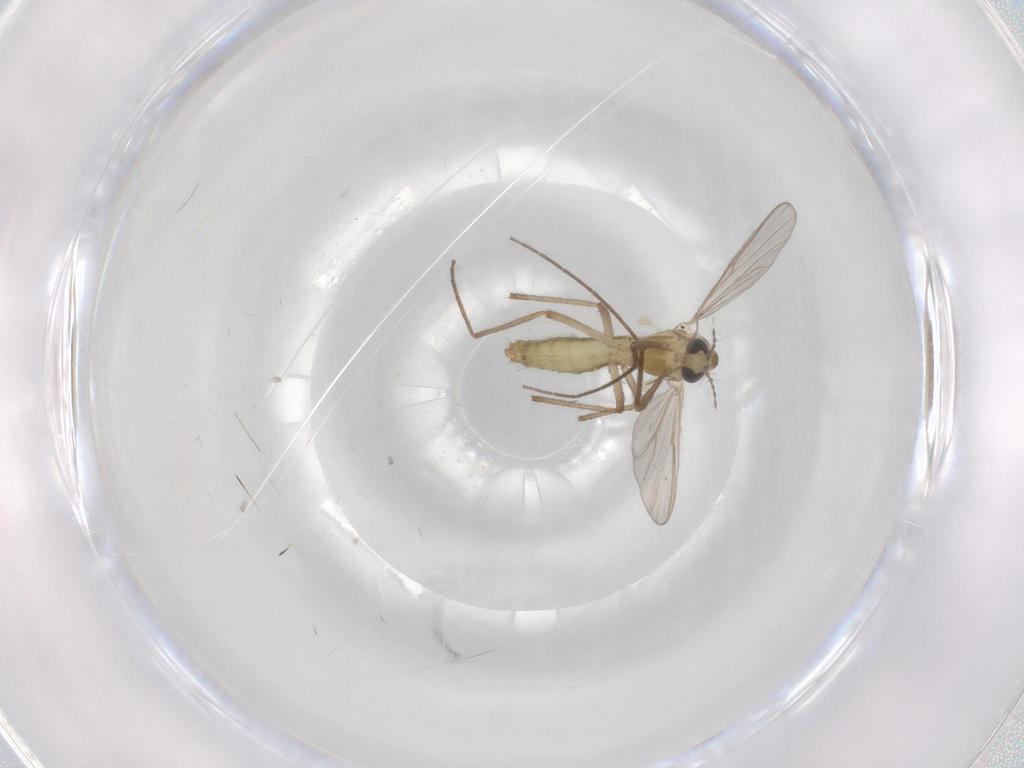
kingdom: Animalia
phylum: Arthropoda
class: Insecta
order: Diptera
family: Chironomidae
